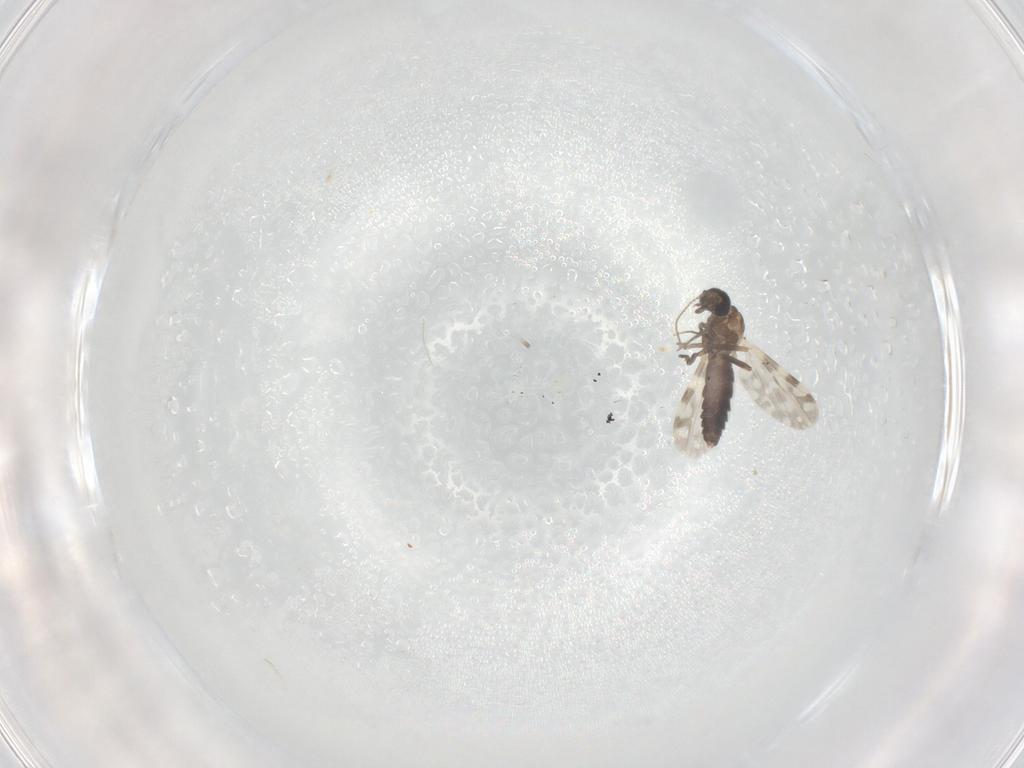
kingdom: Animalia
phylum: Arthropoda
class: Insecta
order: Diptera
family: Ceratopogonidae
